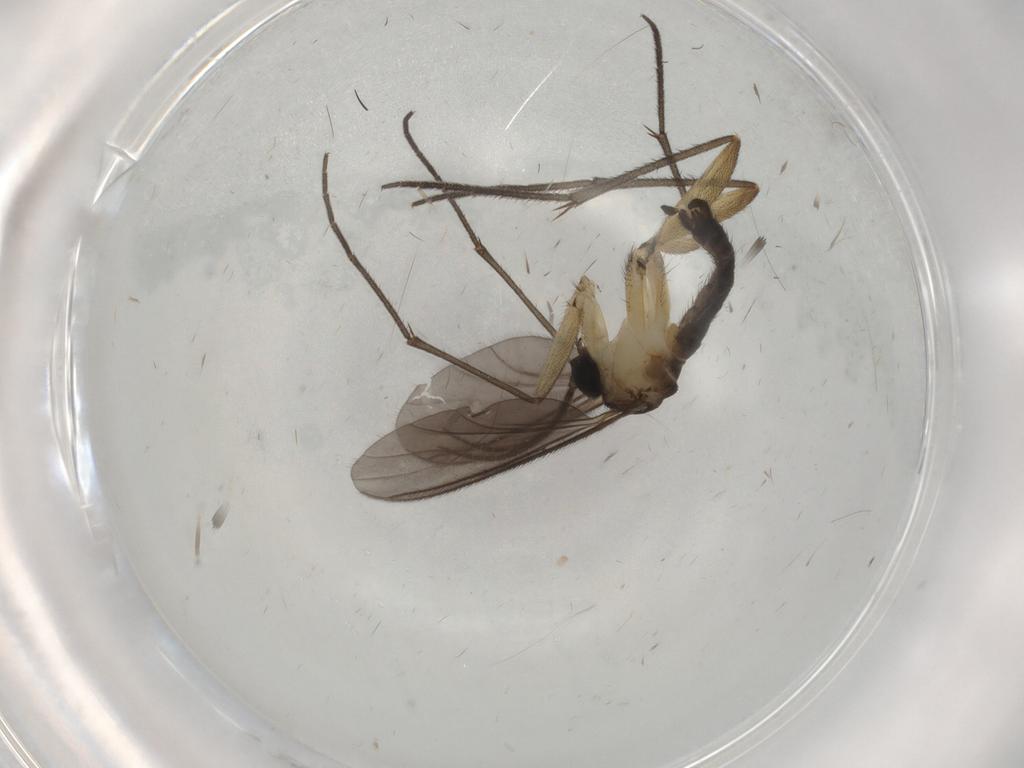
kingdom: Animalia
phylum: Arthropoda
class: Insecta
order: Diptera
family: Sciaridae
